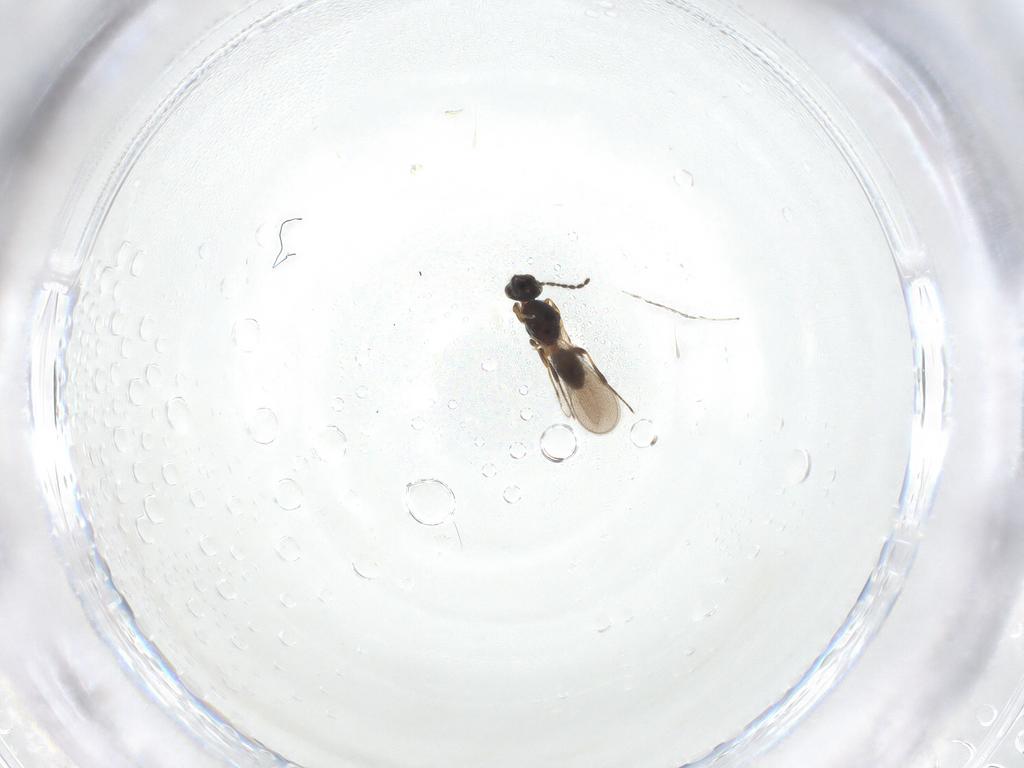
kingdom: Animalia
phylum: Arthropoda
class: Insecta
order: Hymenoptera
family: Platygastridae
